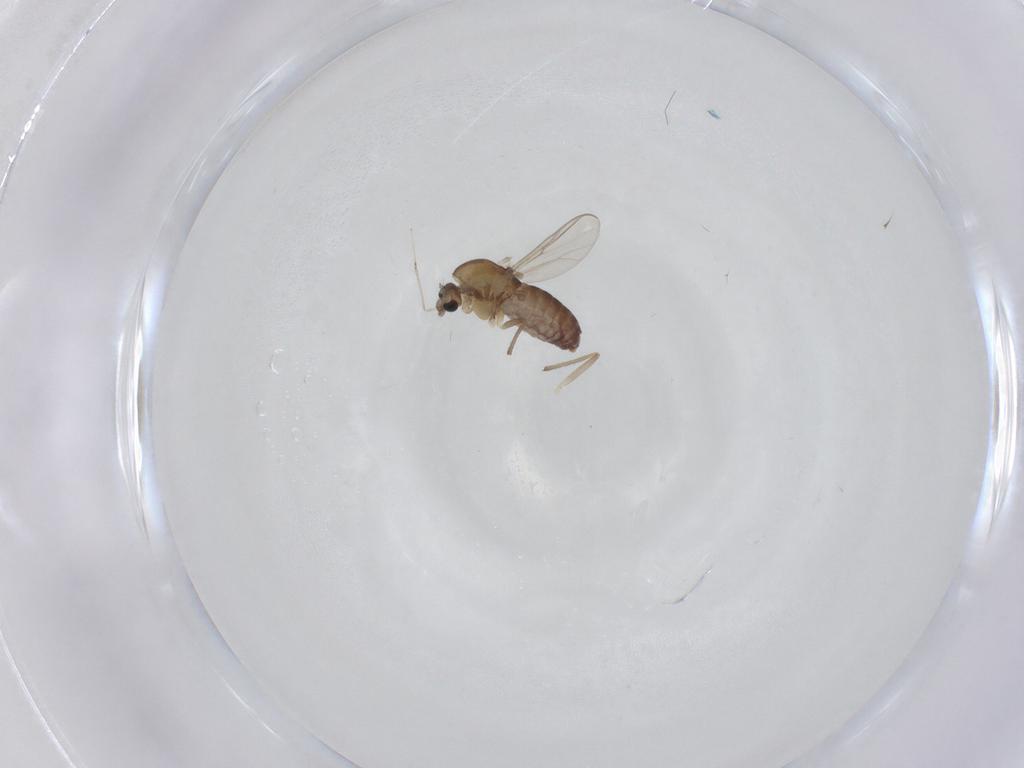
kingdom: Animalia
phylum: Arthropoda
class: Insecta
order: Diptera
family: Chironomidae
